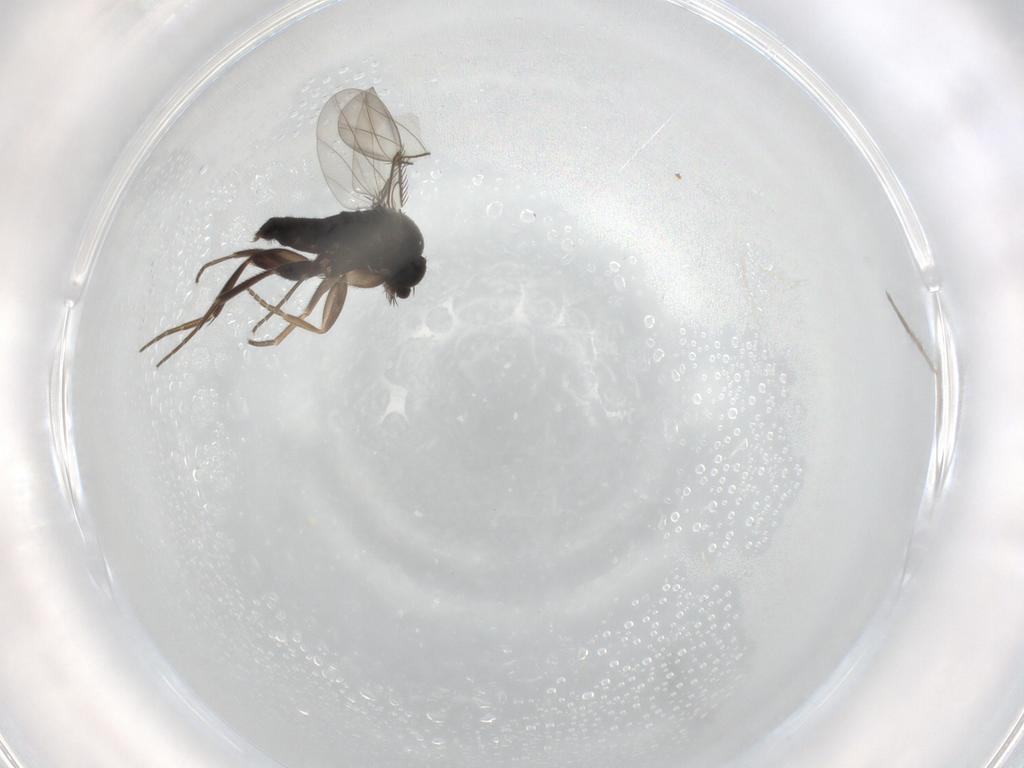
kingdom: Animalia
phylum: Arthropoda
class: Insecta
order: Diptera
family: Phoridae
